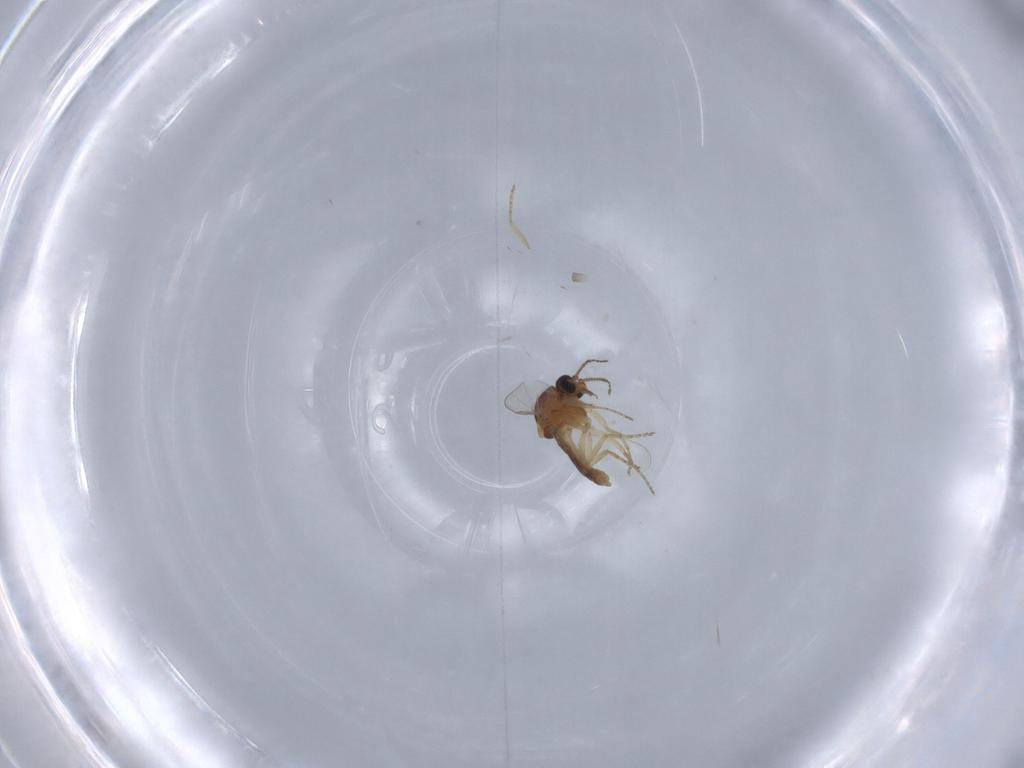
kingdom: Animalia
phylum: Arthropoda
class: Insecta
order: Diptera
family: Ceratopogonidae
